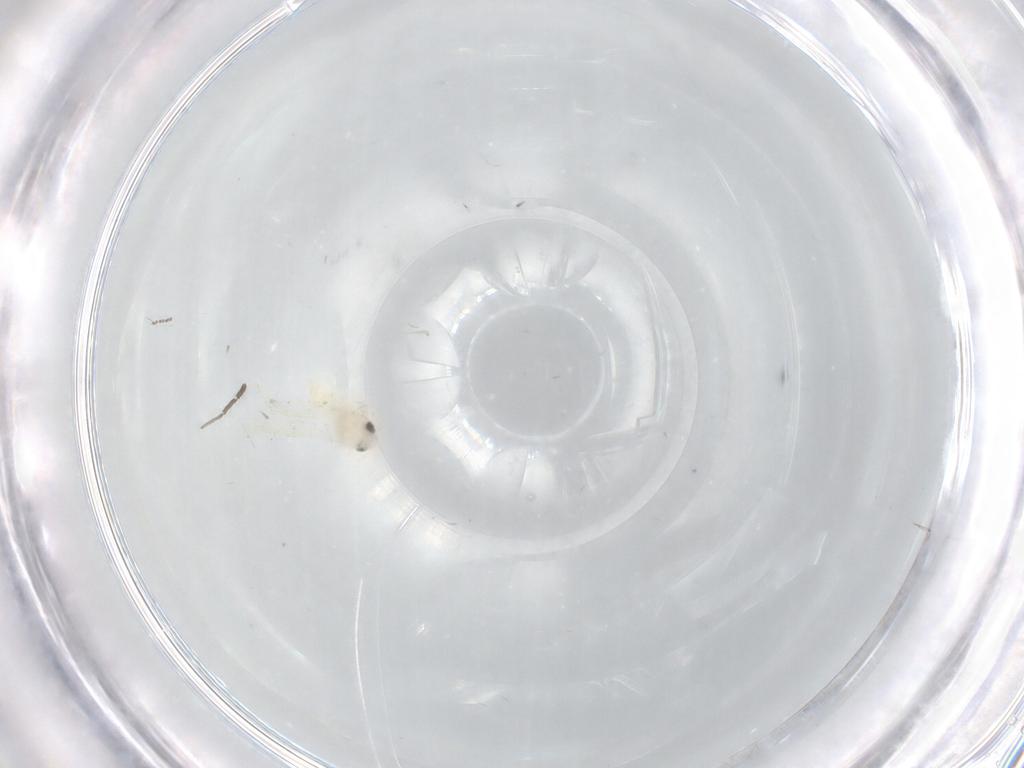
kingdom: Animalia
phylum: Arthropoda
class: Insecta
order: Hemiptera
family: Aleyrodidae
